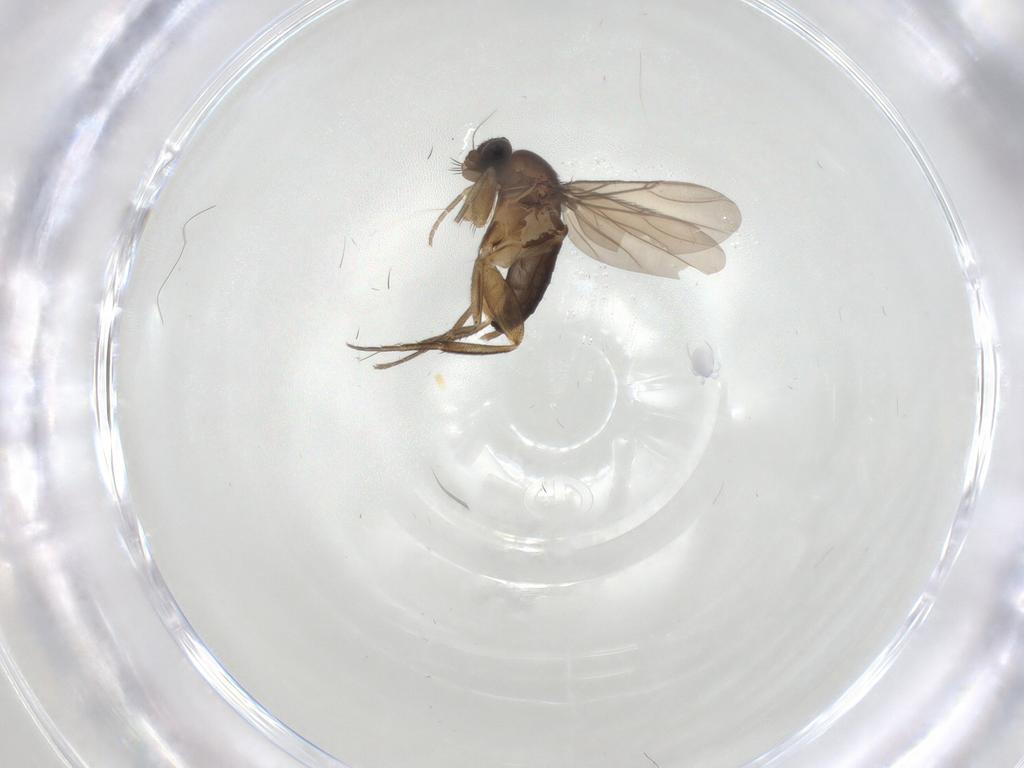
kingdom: Animalia
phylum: Arthropoda
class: Insecta
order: Diptera
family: Phoridae
